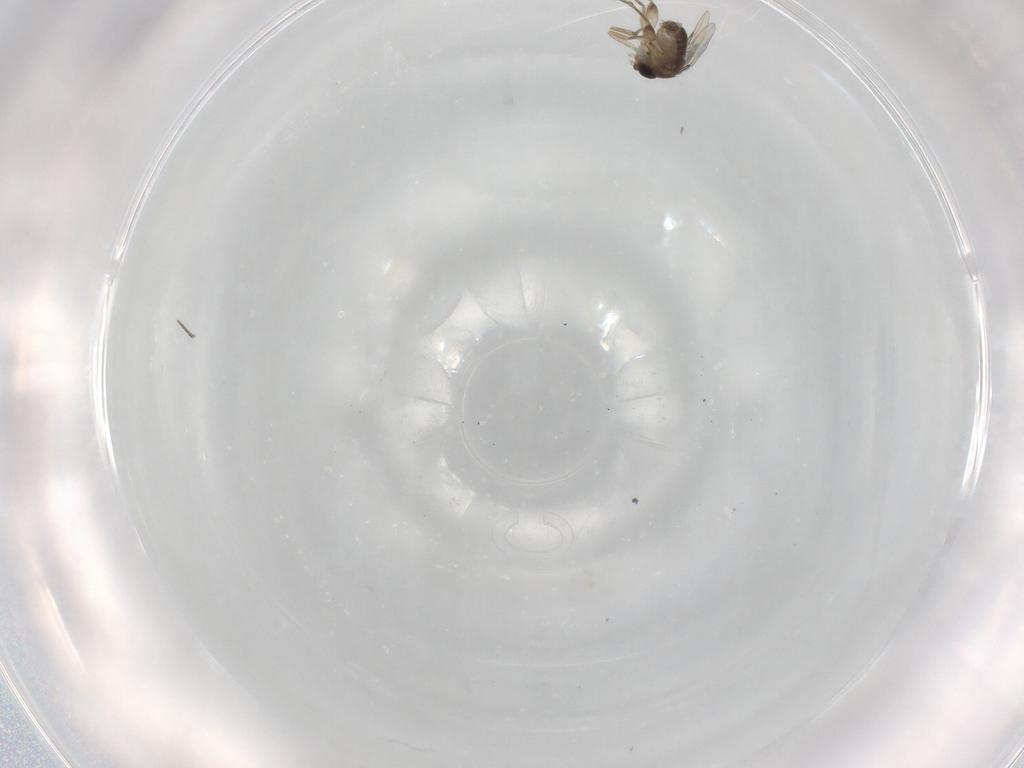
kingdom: Animalia
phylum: Arthropoda
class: Insecta
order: Diptera
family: Phoridae
